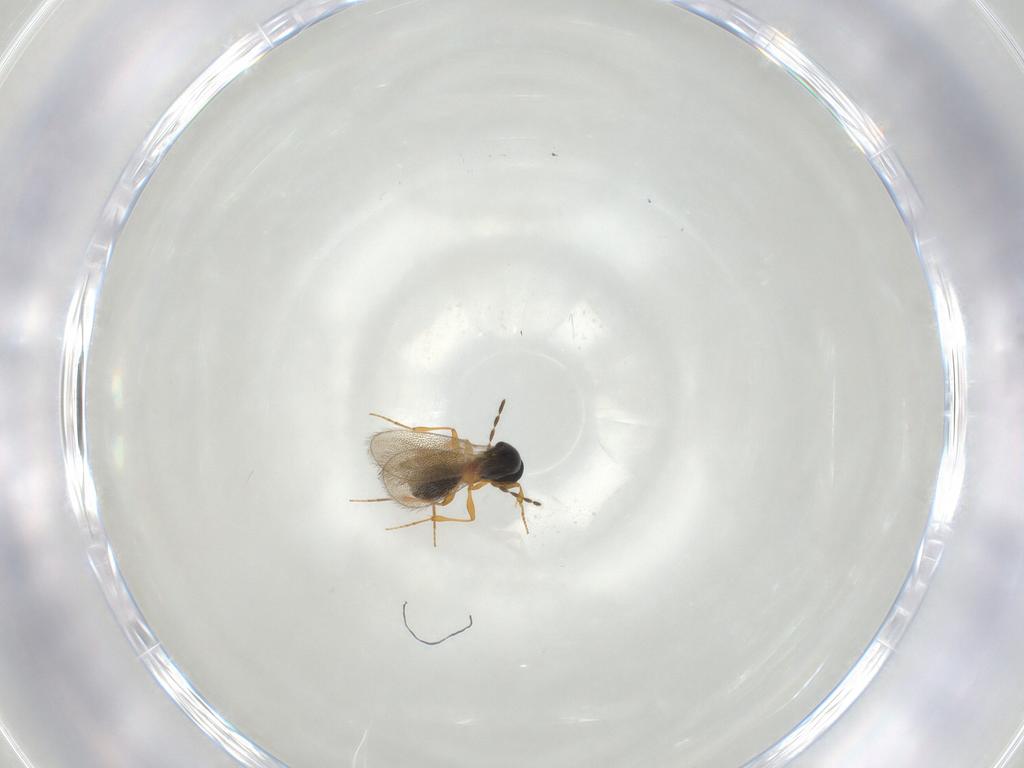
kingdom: Animalia
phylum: Arthropoda
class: Insecta
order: Hymenoptera
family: Platygastridae
